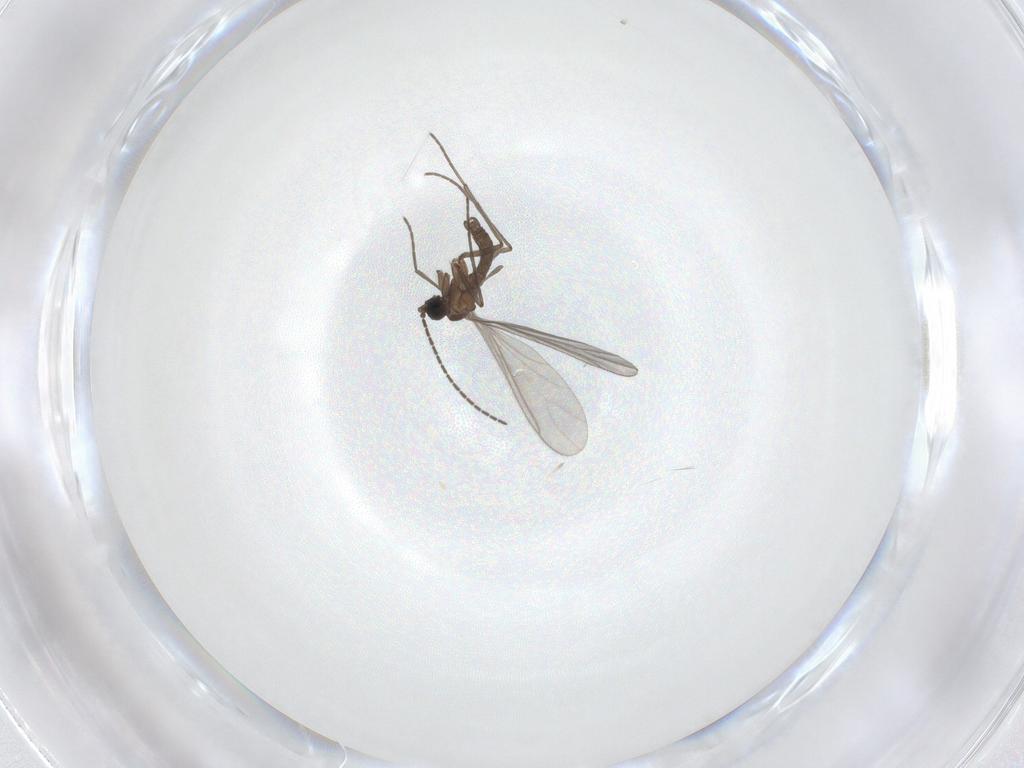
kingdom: Animalia
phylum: Arthropoda
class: Insecta
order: Diptera
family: Sciaridae
